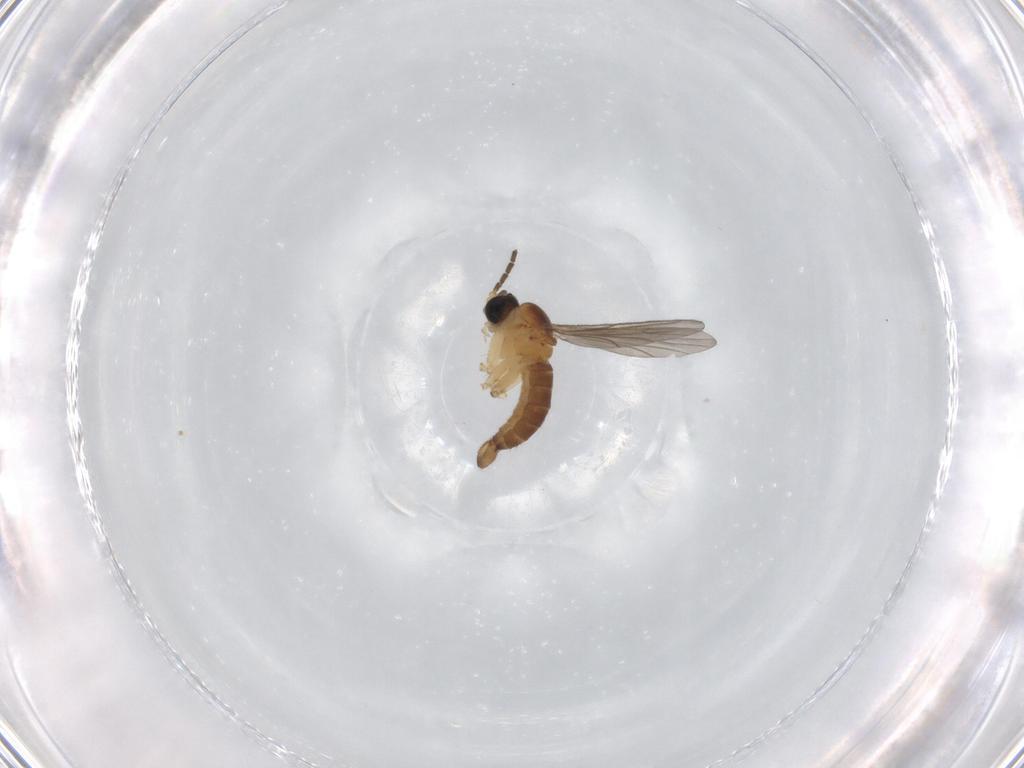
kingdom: Animalia
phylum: Arthropoda
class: Insecta
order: Diptera
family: Sciaridae
